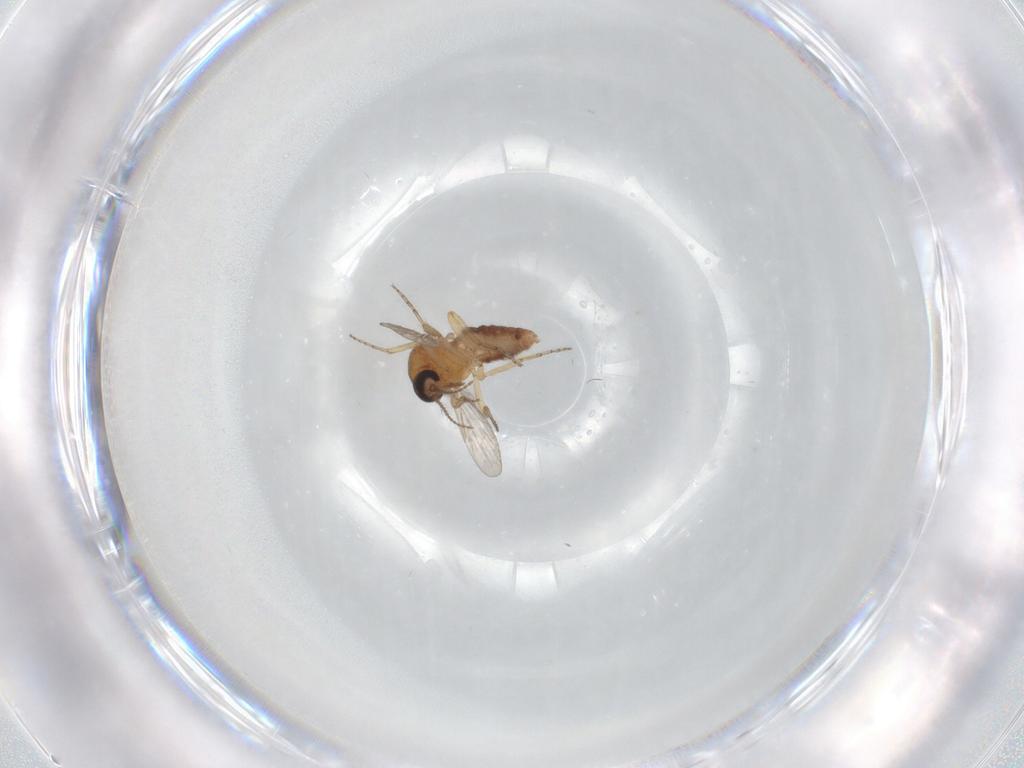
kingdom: Animalia
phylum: Arthropoda
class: Insecta
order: Diptera
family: Ceratopogonidae
